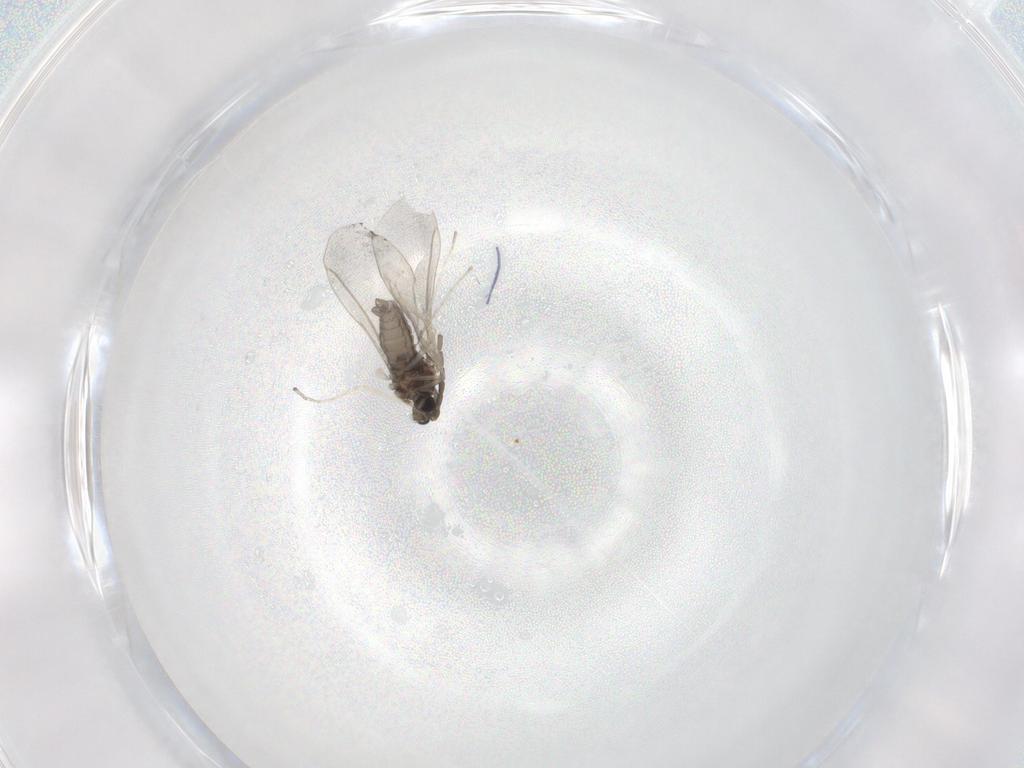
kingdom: Animalia
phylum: Arthropoda
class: Insecta
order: Diptera
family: Cecidomyiidae
